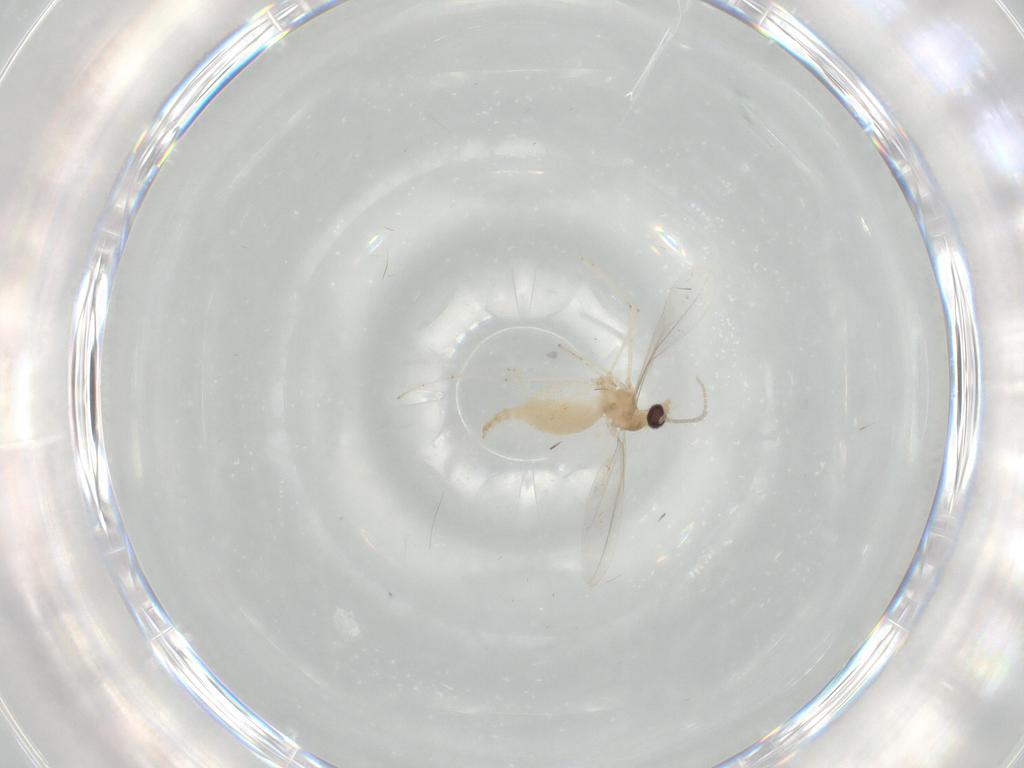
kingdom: Animalia
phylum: Arthropoda
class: Insecta
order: Diptera
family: Cecidomyiidae
